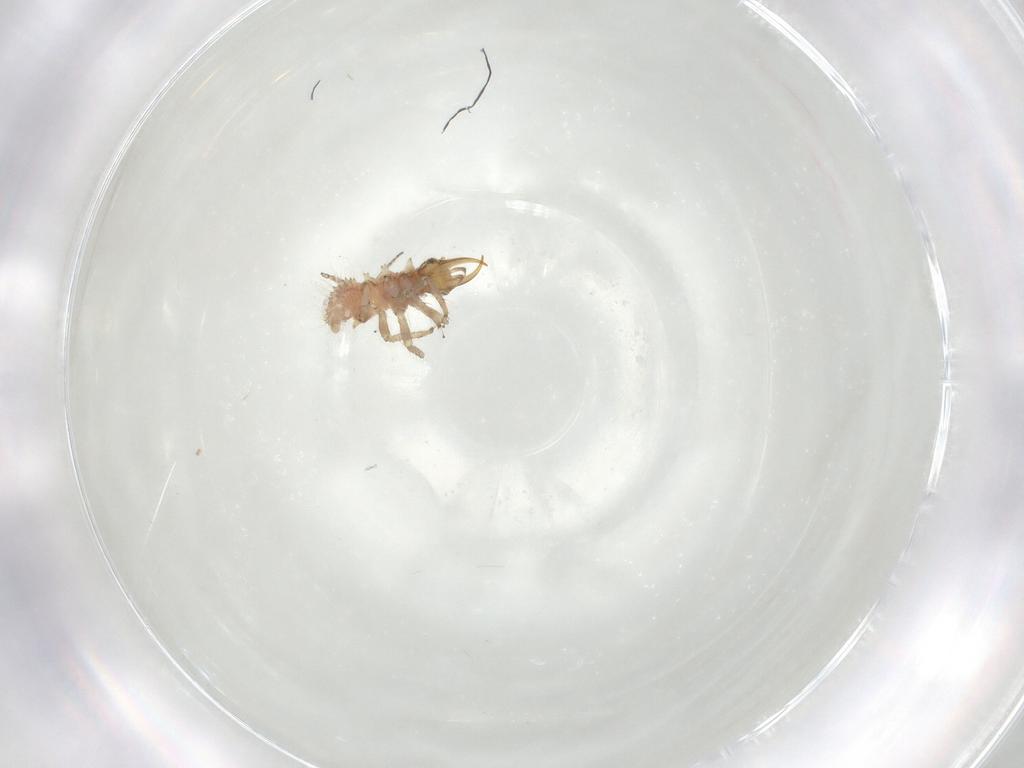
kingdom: Animalia
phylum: Arthropoda
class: Insecta
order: Neuroptera
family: Chrysopidae
